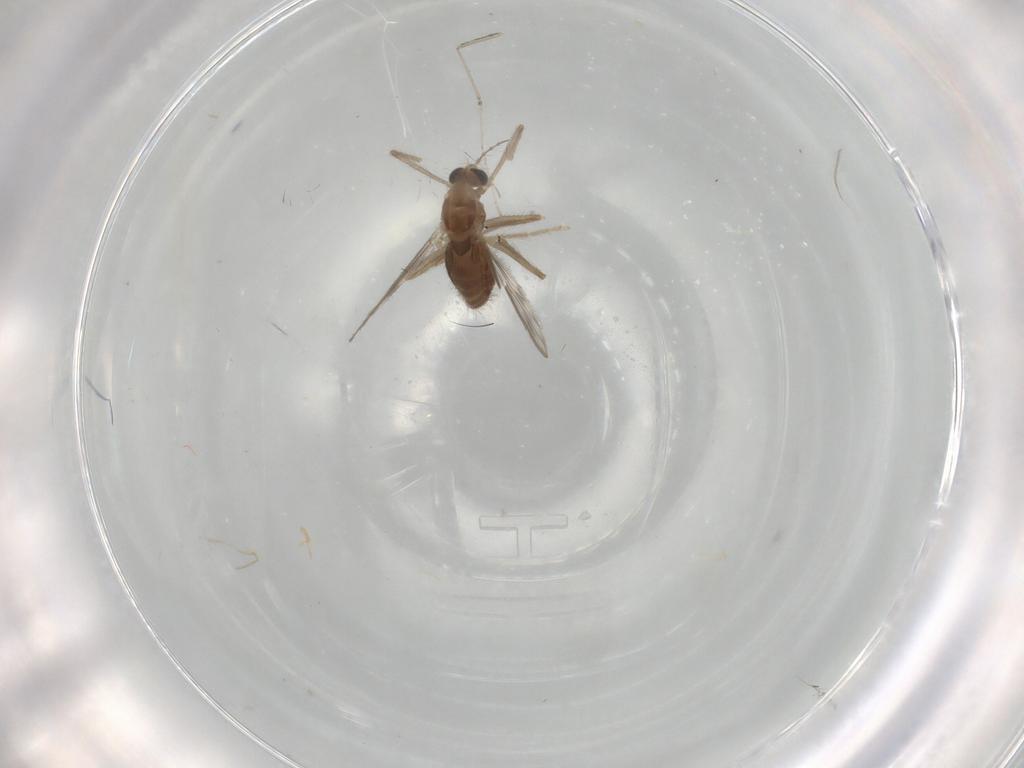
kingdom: Animalia
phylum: Arthropoda
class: Insecta
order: Diptera
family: Chironomidae
